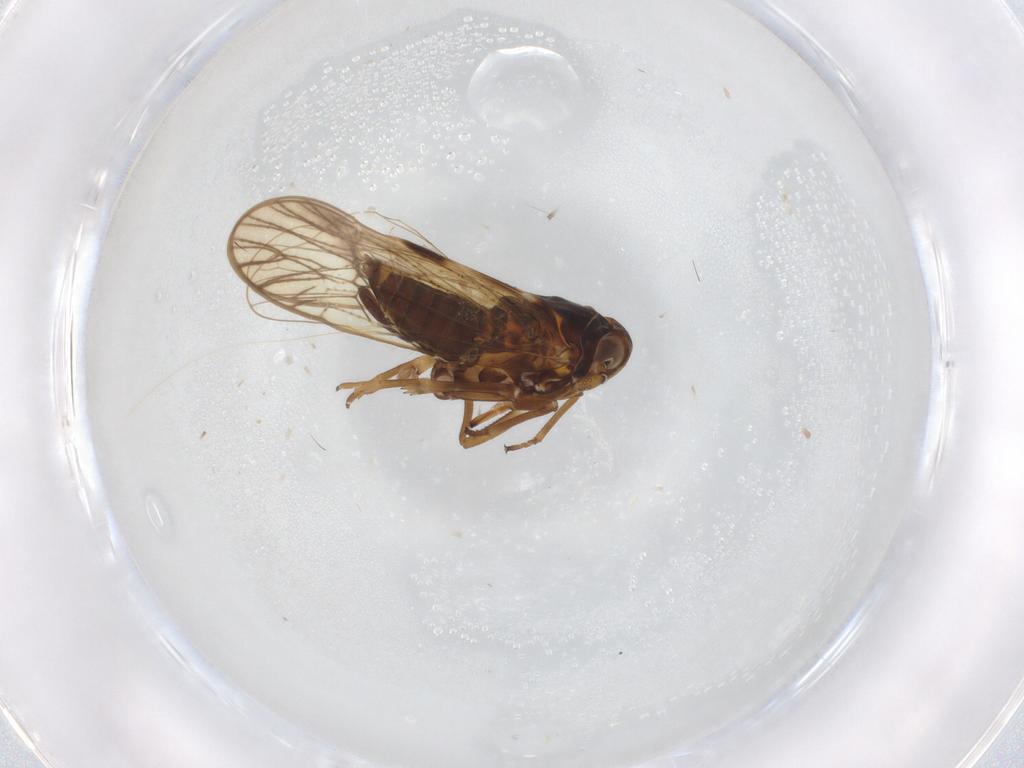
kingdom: Animalia
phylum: Arthropoda
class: Insecta
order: Hemiptera
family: Delphacidae
